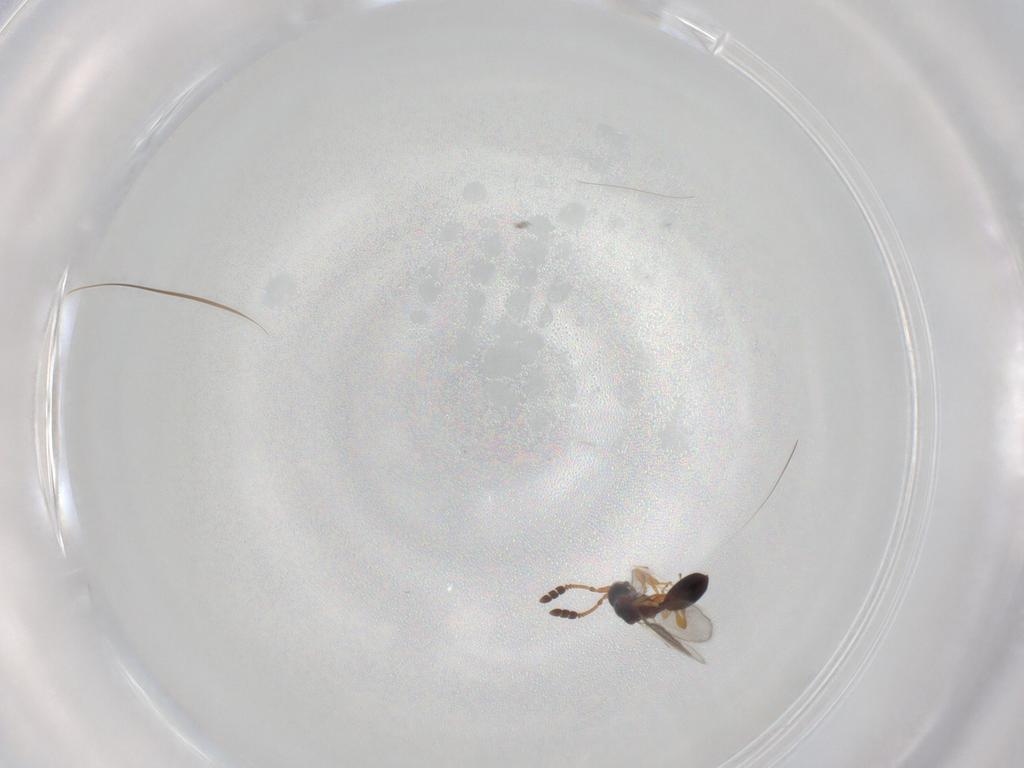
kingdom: Animalia
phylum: Arthropoda
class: Insecta
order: Hymenoptera
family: Diapriidae
